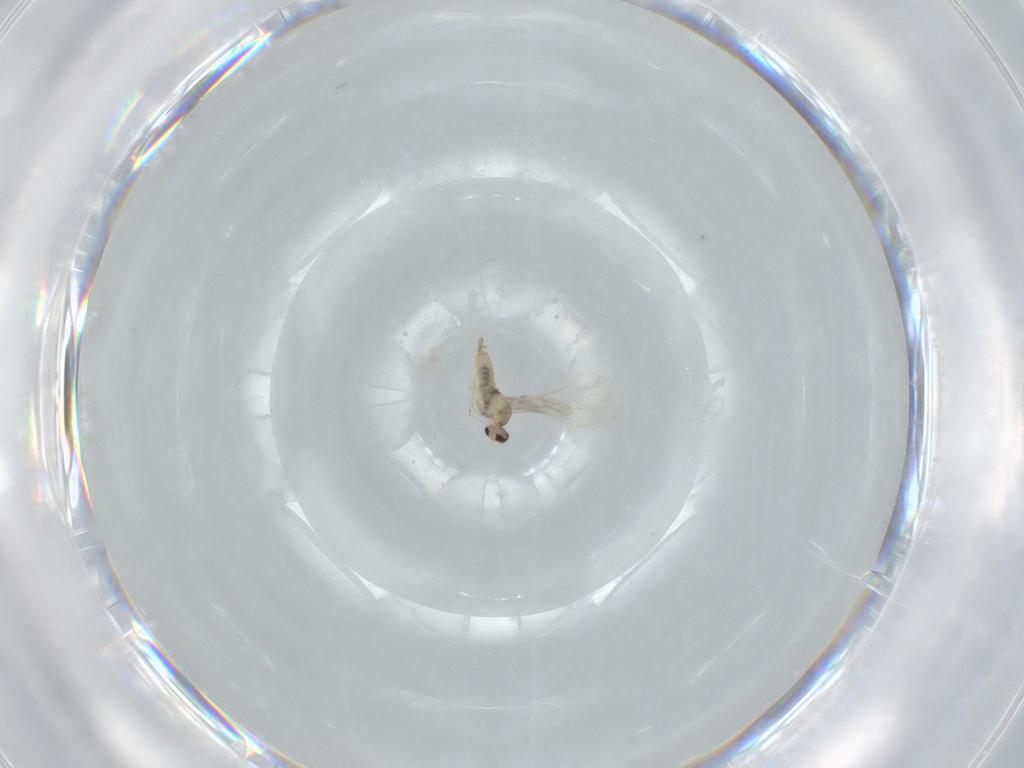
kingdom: Animalia
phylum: Arthropoda
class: Insecta
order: Diptera
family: Cecidomyiidae
